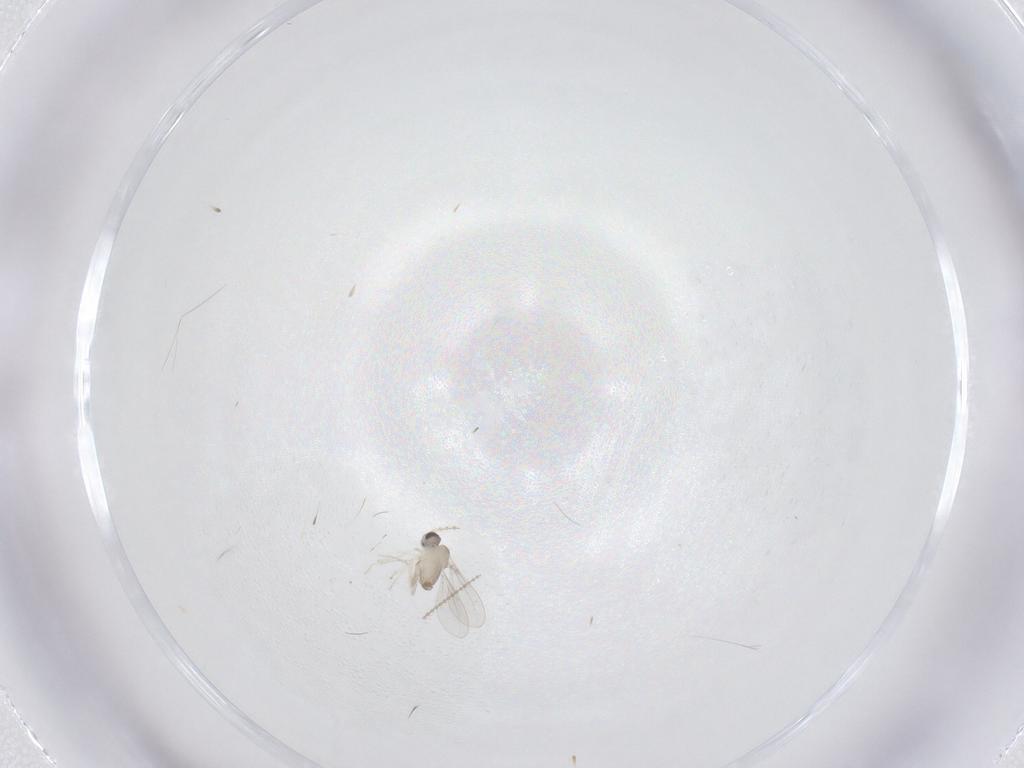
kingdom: Animalia
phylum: Arthropoda
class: Insecta
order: Diptera
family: Cecidomyiidae
